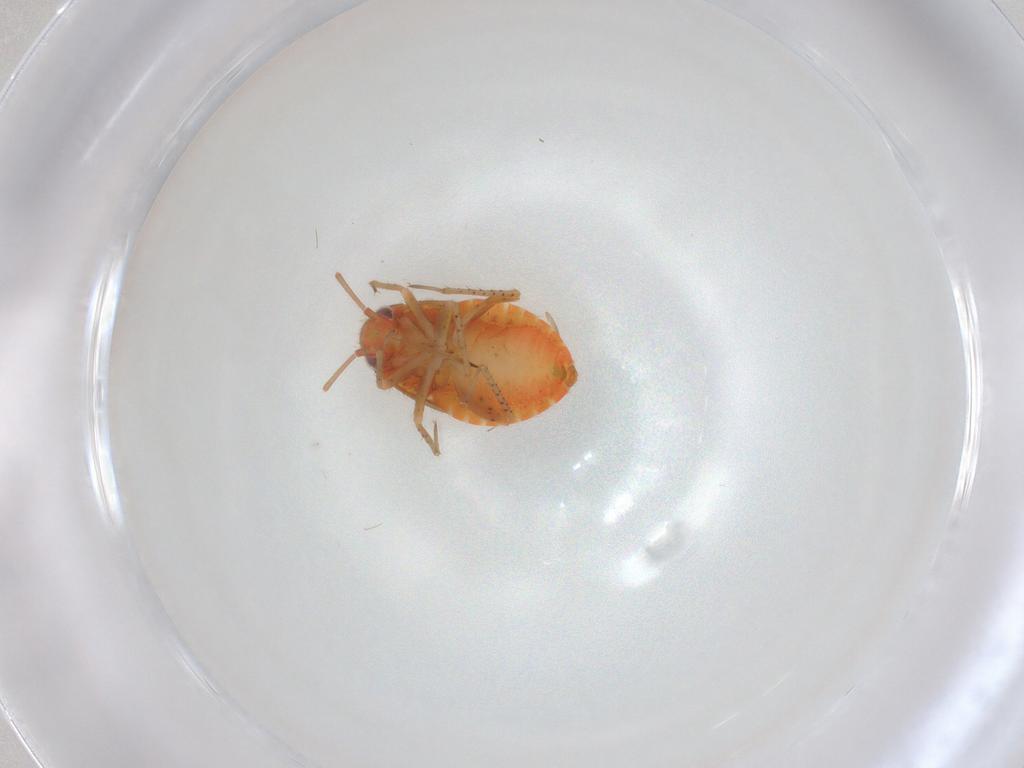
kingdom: Animalia
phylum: Arthropoda
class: Insecta
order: Hemiptera
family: Miridae
